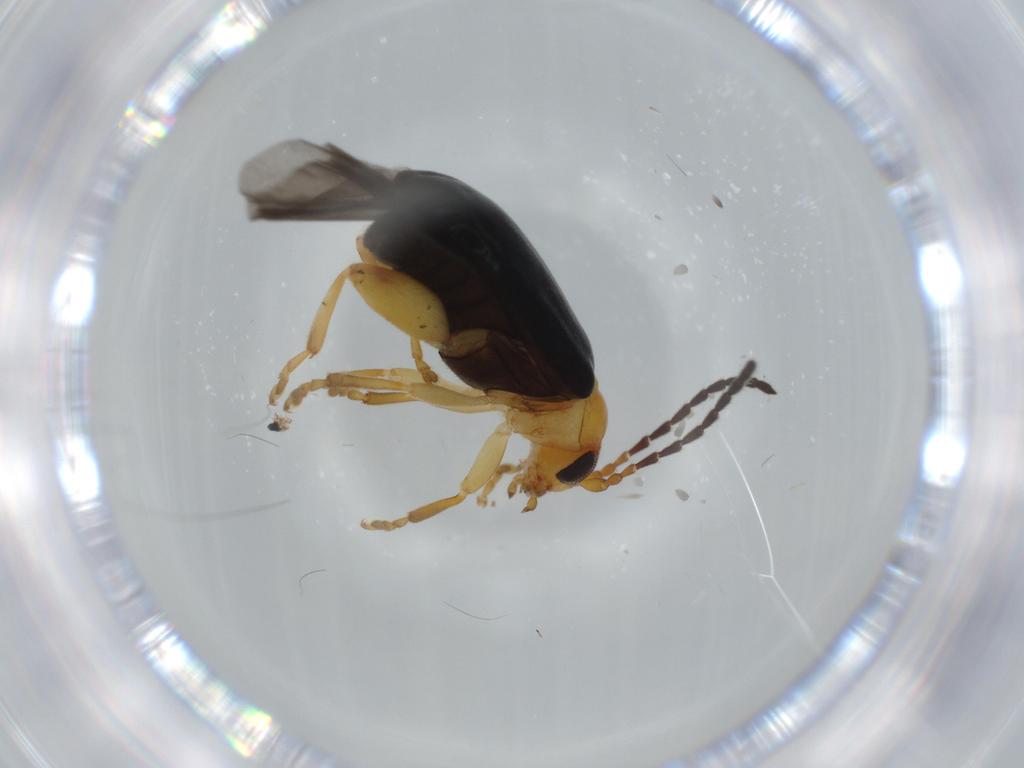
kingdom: Animalia
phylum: Arthropoda
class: Insecta
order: Coleoptera
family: Chrysomelidae
